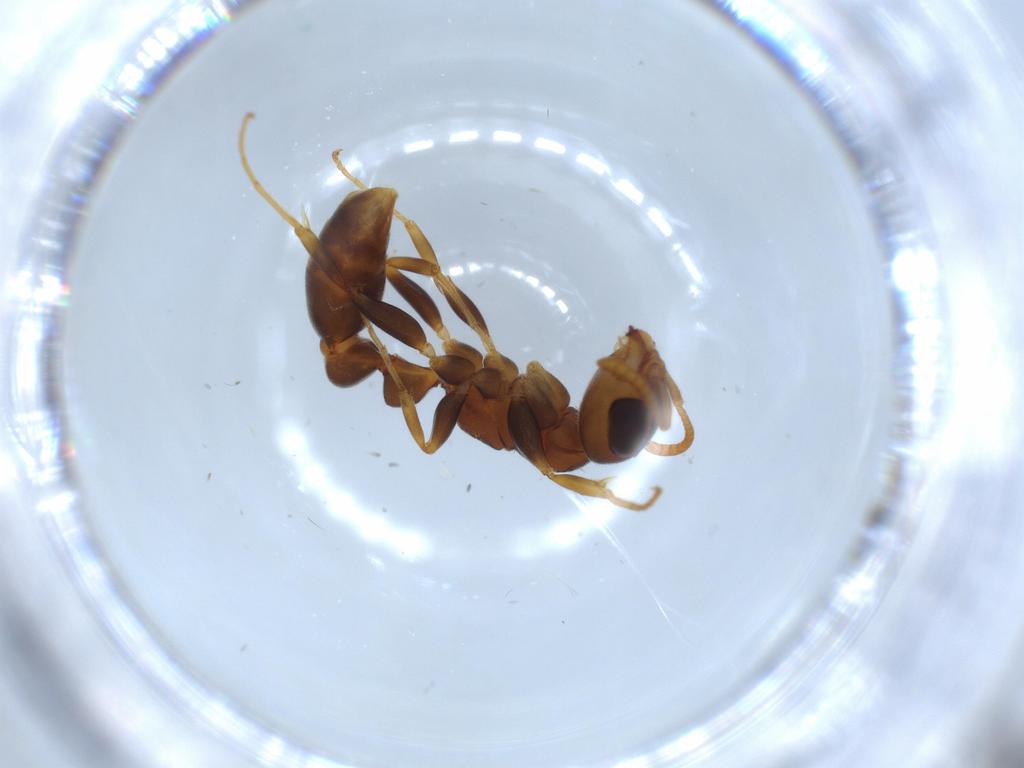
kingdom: Animalia
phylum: Arthropoda
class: Insecta
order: Hymenoptera
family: Formicidae
